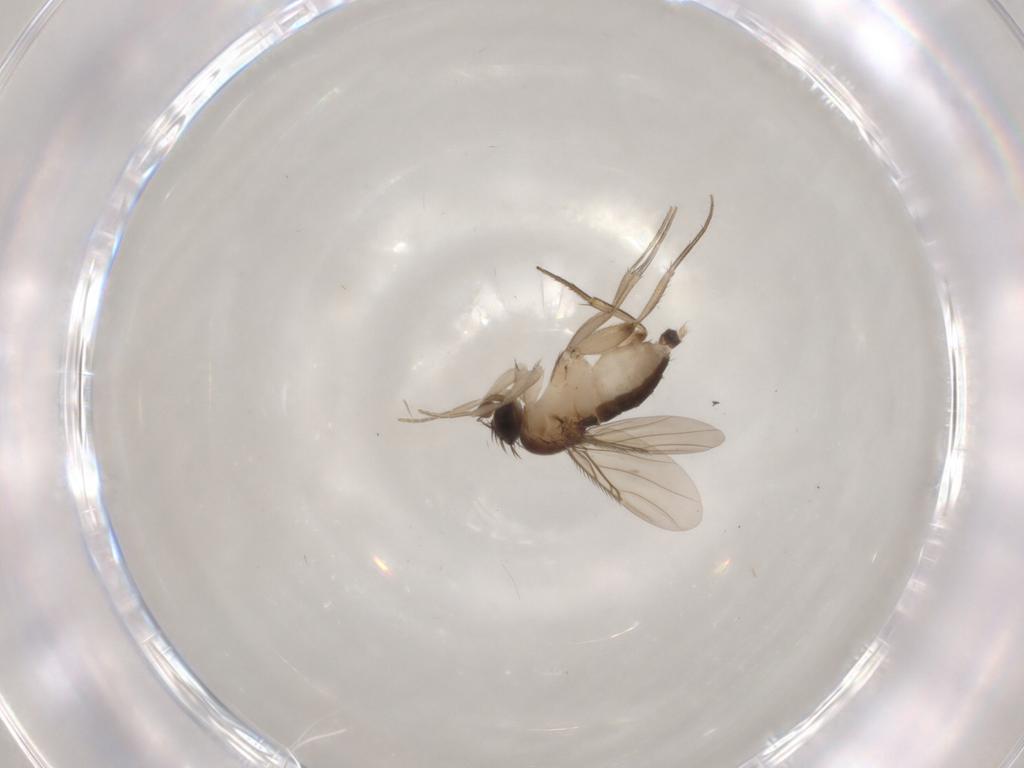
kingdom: Animalia
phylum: Arthropoda
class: Insecta
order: Diptera
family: Phoridae
